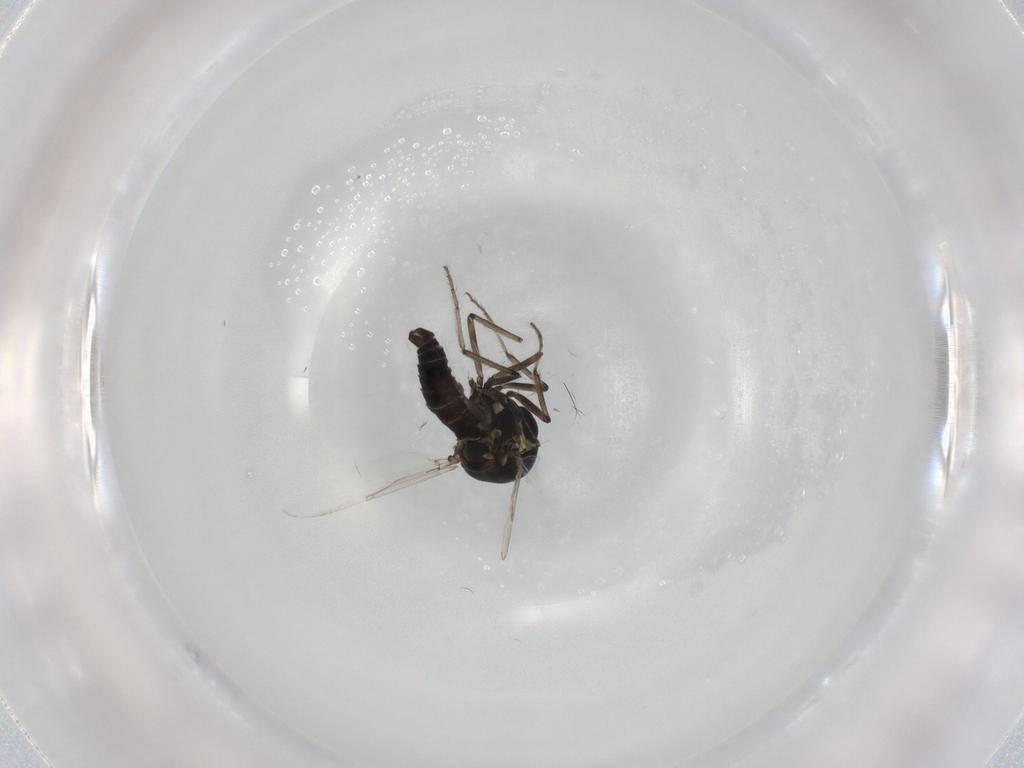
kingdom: Animalia
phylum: Arthropoda
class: Insecta
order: Diptera
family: Ceratopogonidae
